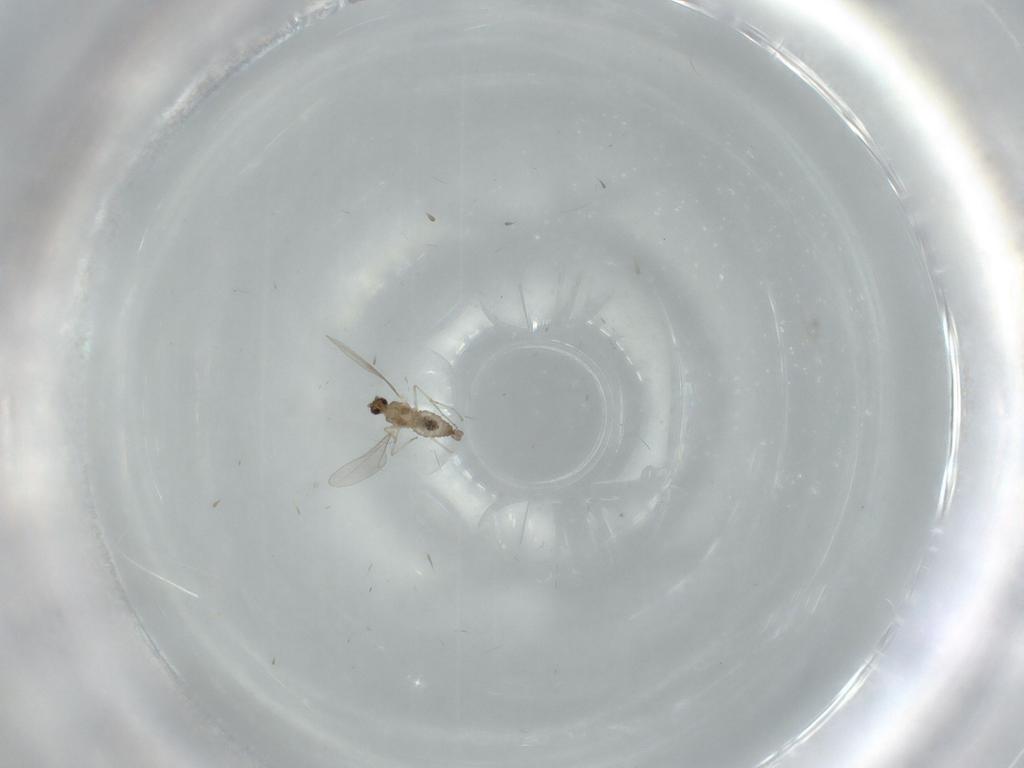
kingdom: Animalia
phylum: Arthropoda
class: Insecta
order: Diptera
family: Cecidomyiidae
